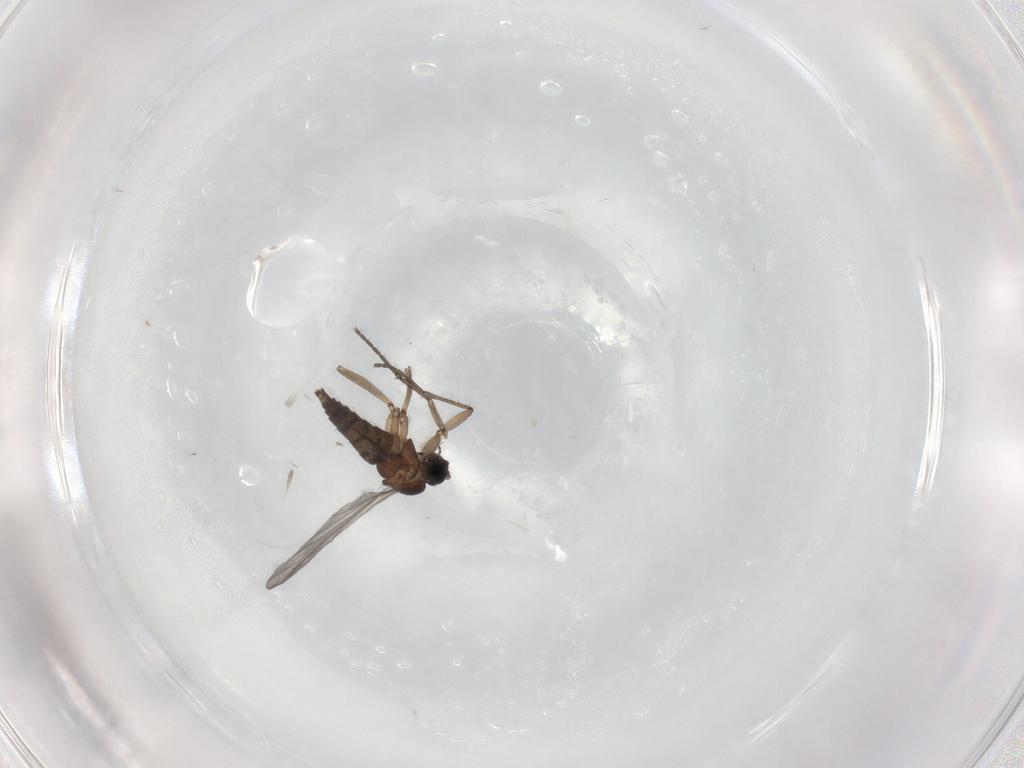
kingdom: Animalia
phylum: Arthropoda
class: Insecta
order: Diptera
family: Sciaridae
